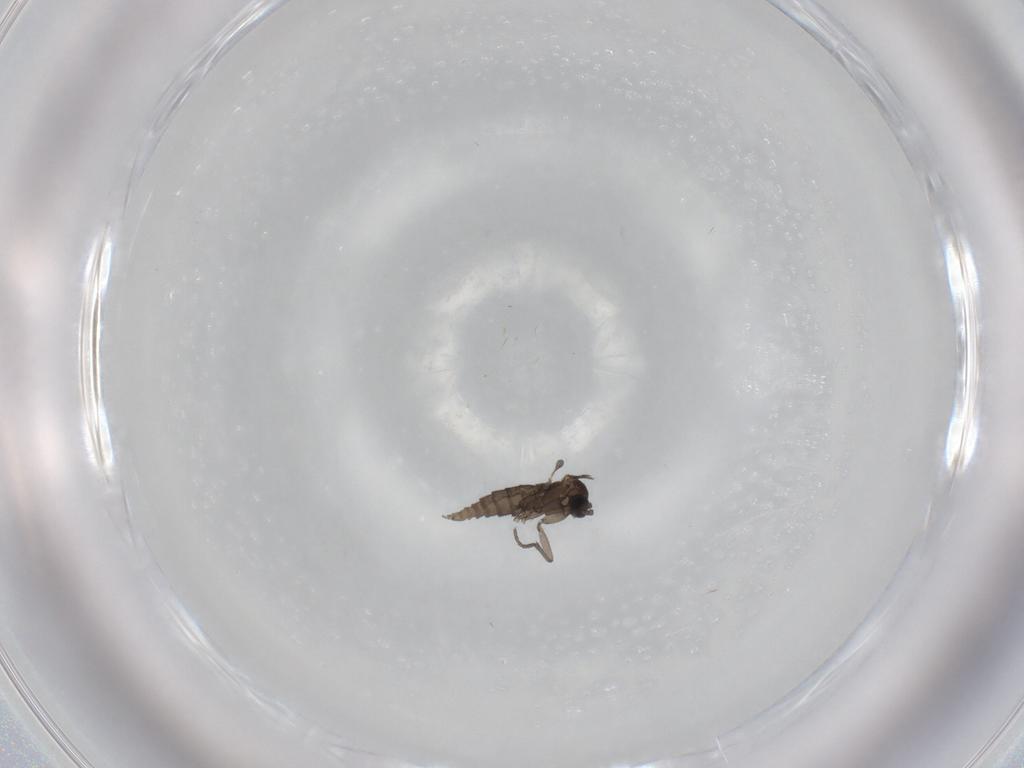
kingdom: Animalia
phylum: Arthropoda
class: Insecta
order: Diptera
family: Sciaridae
